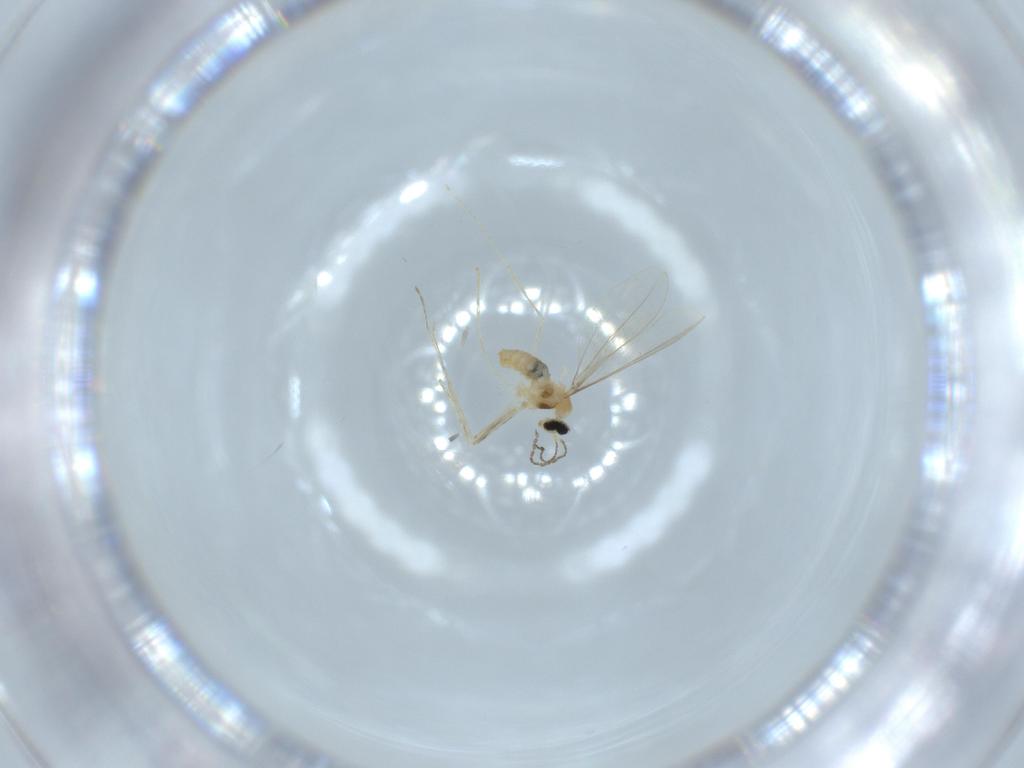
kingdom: Animalia
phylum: Arthropoda
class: Insecta
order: Diptera
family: Cecidomyiidae
